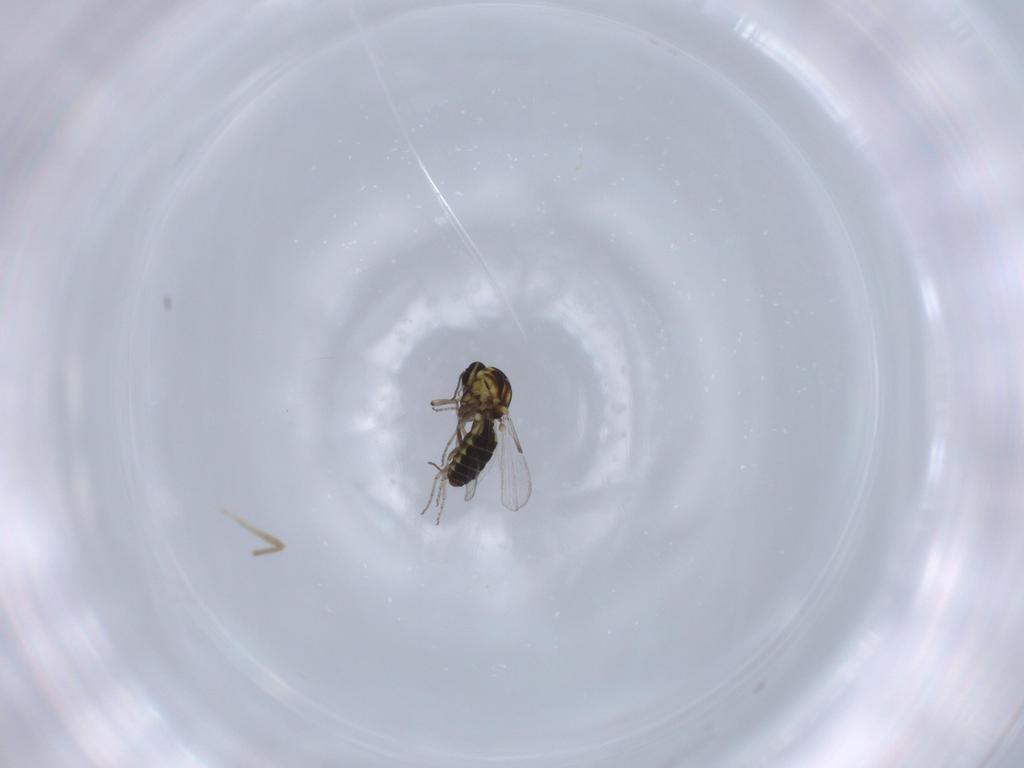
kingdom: Animalia
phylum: Arthropoda
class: Insecta
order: Diptera
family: Ceratopogonidae
